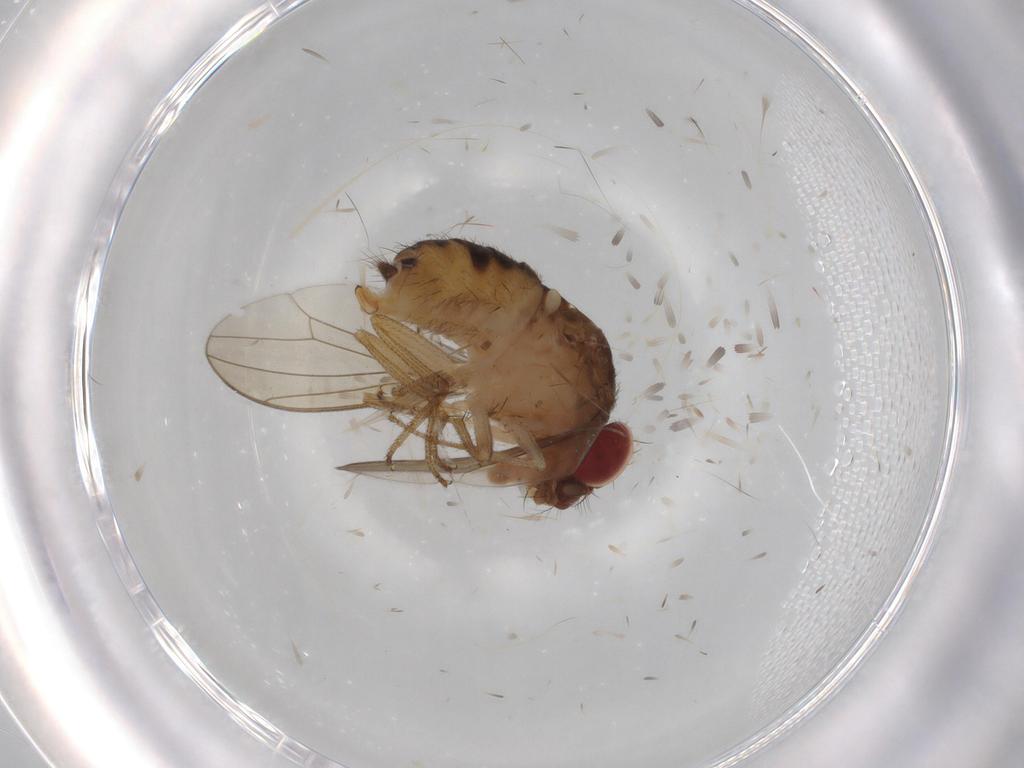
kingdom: Animalia
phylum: Arthropoda
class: Insecta
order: Diptera
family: Drosophilidae
